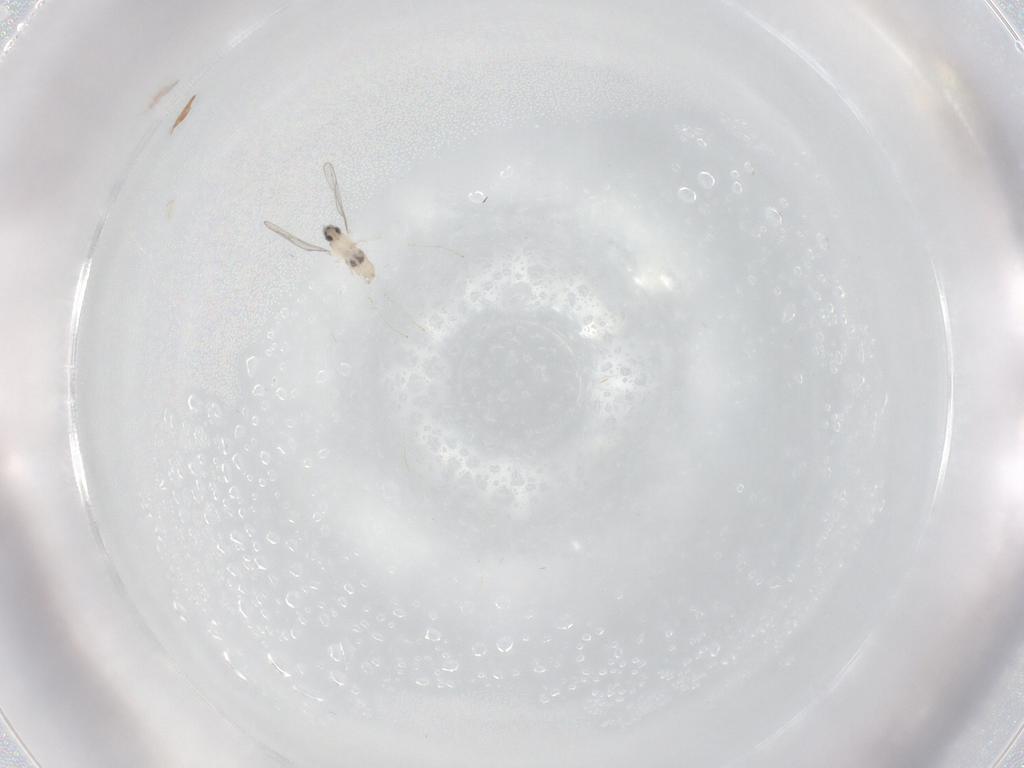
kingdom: Animalia
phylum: Arthropoda
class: Insecta
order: Diptera
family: Cecidomyiidae
